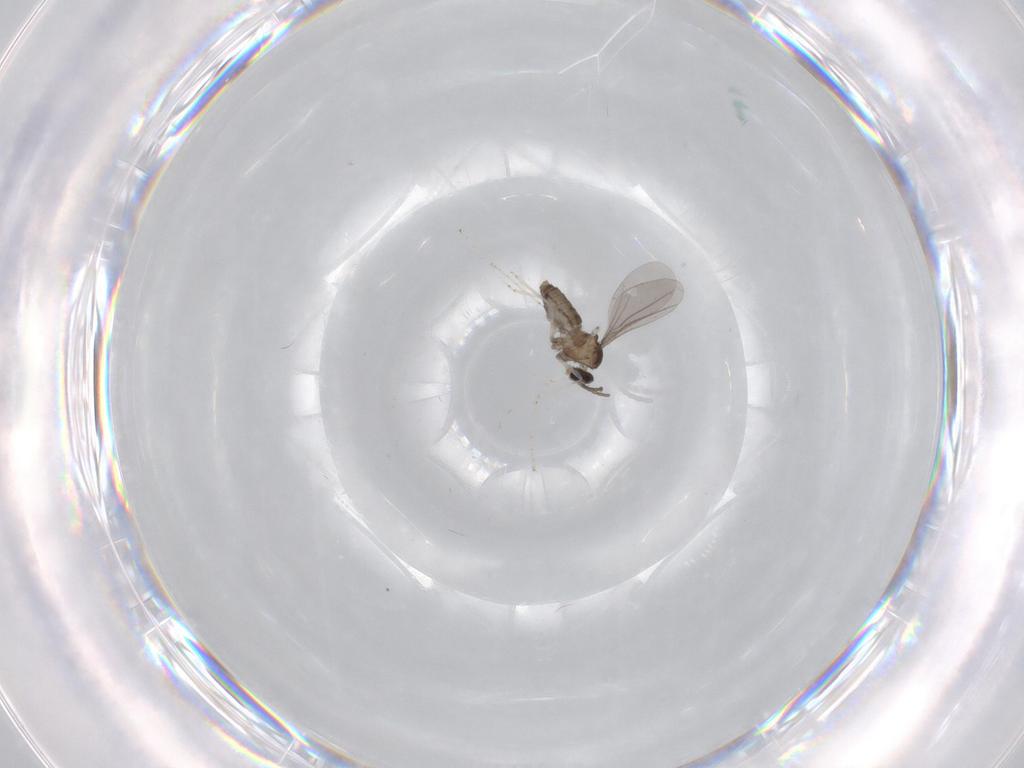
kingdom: Animalia
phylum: Arthropoda
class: Insecta
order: Diptera
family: Cecidomyiidae
